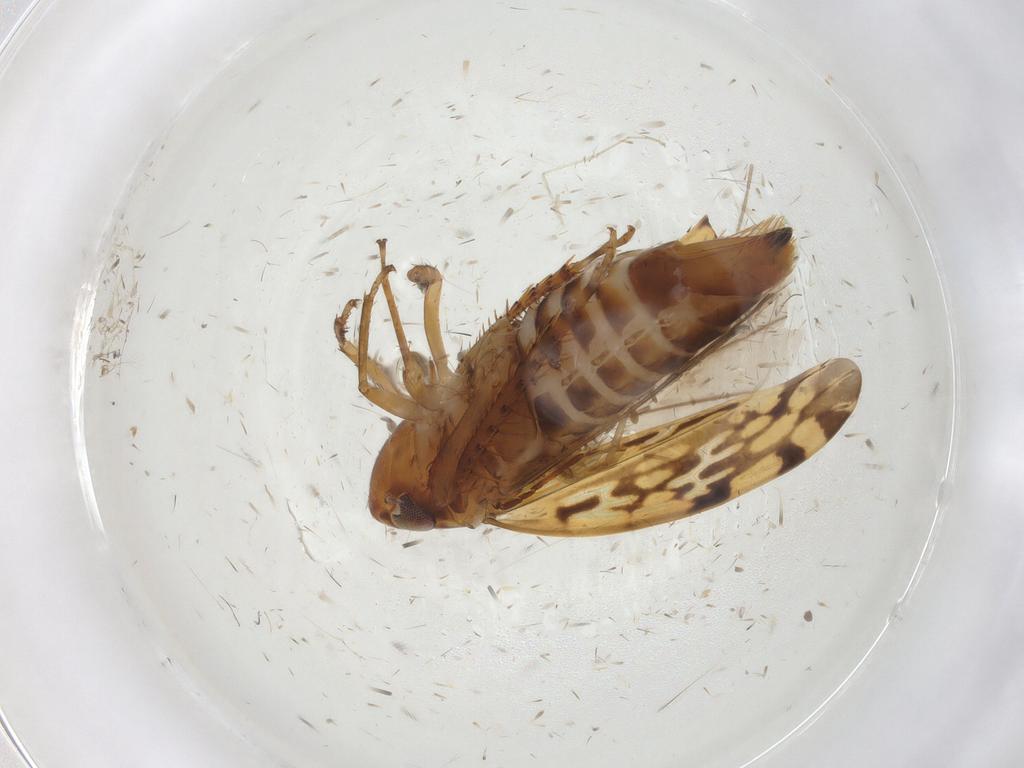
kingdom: Animalia
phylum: Arthropoda
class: Insecta
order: Hemiptera
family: Cicadellidae
